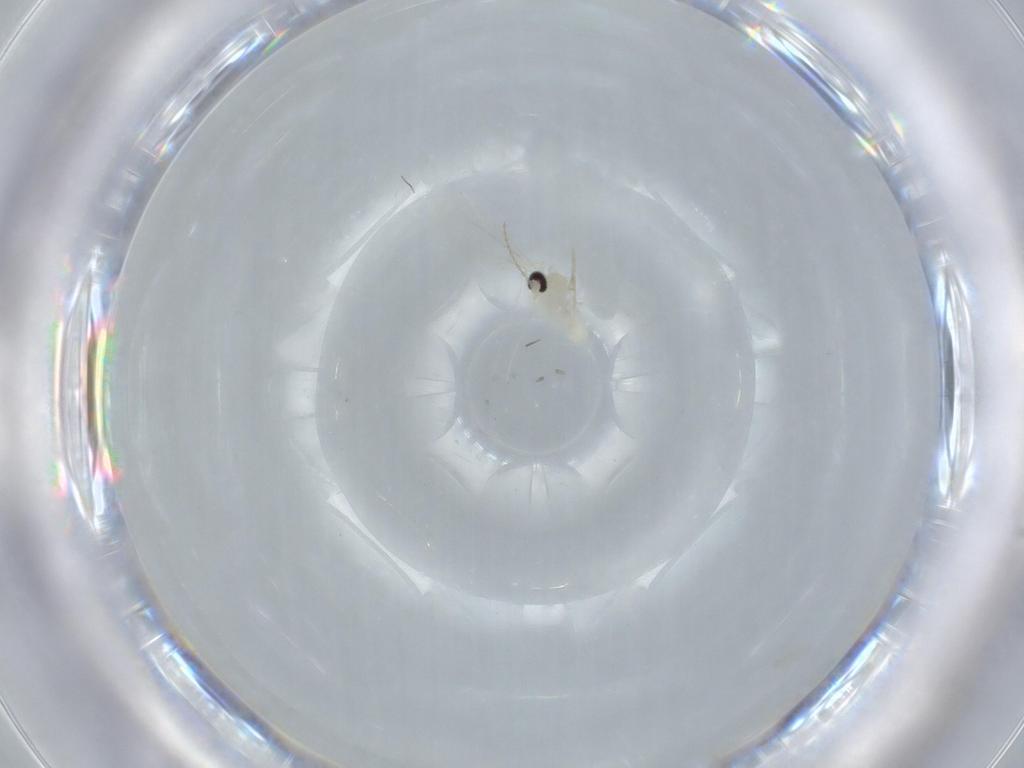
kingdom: Animalia
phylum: Arthropoda
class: Insecta
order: Diptera
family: Cecidomyiidae
